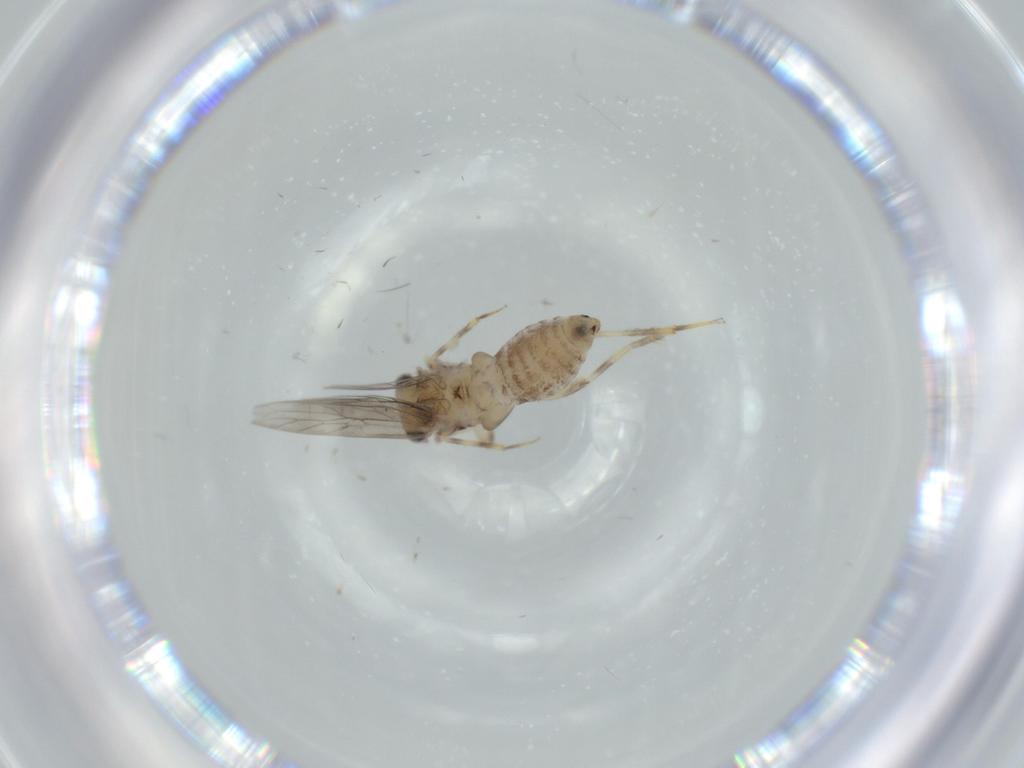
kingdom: Animalia
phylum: Arthropoda
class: Insecta
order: Psocodea
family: Lepidopsocidae
